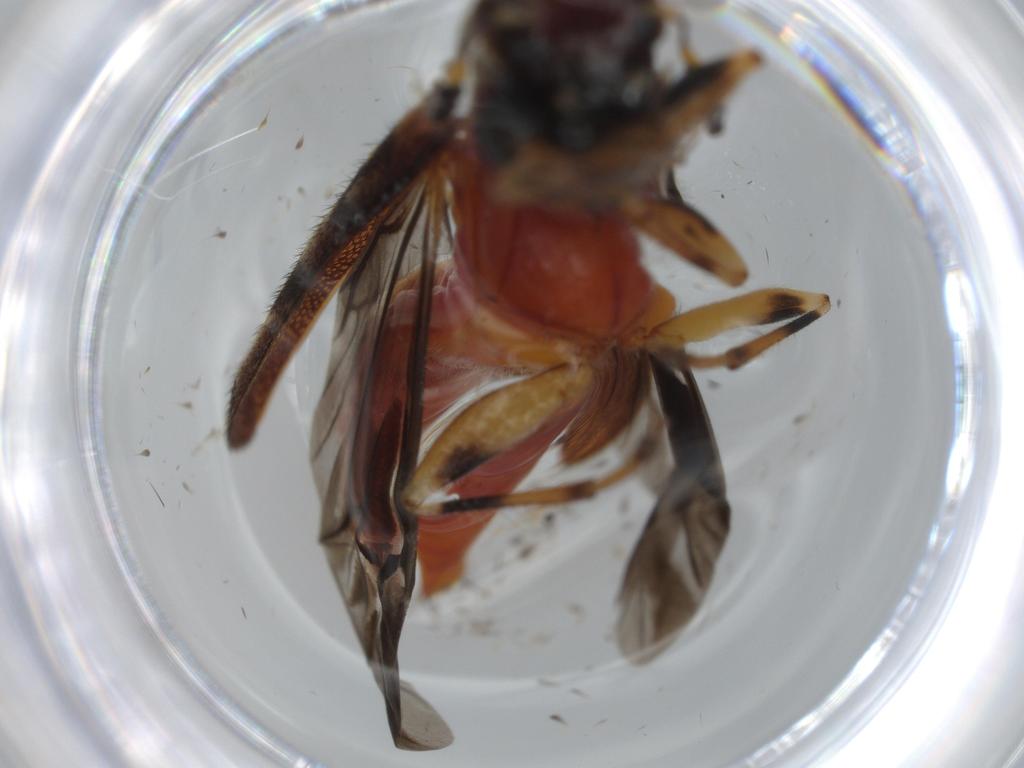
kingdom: Animalia
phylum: Arthropoda
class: Insecta
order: Coleoptera
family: Cleridae
